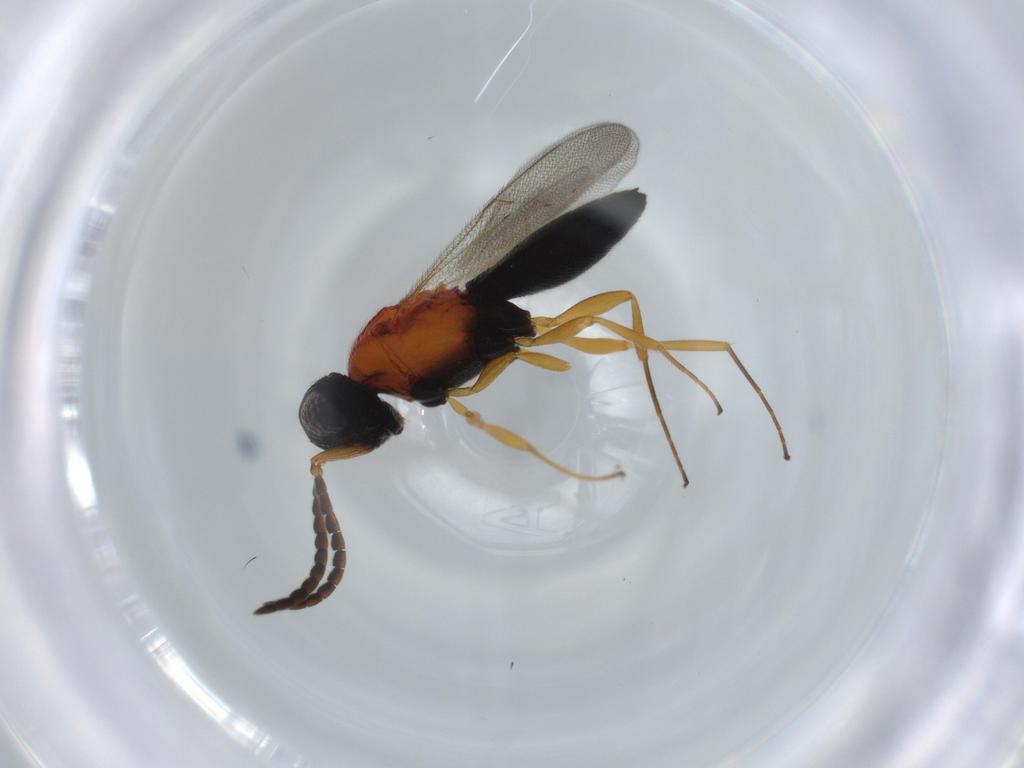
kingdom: Animalia
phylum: Arthropoda
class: Insecta
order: Hymenoptera
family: Scelionidae
